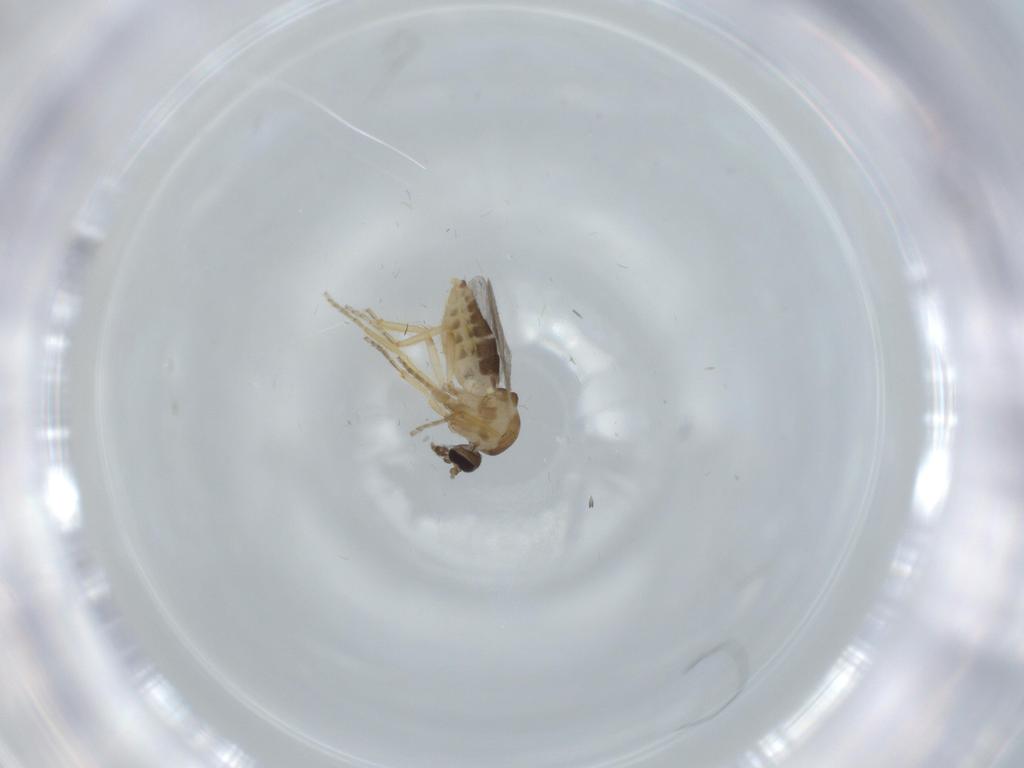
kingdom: Animalia
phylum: Arthropoda
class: Insecta
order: Diptera
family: Ceratopogonidae
